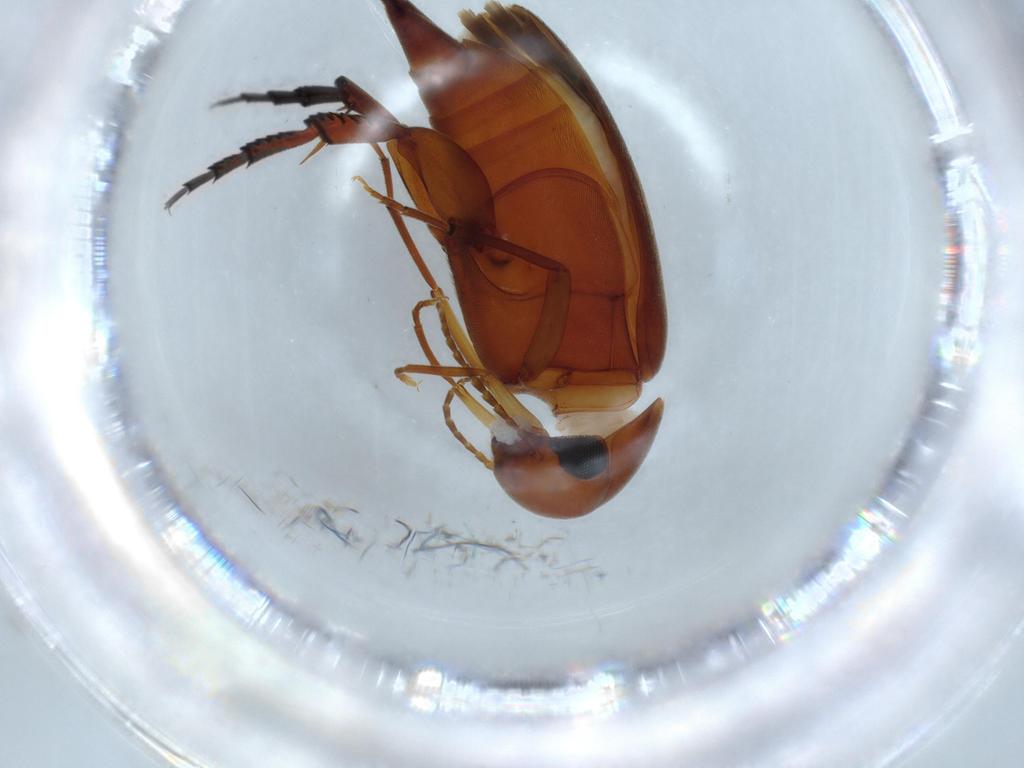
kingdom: Animalia
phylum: Arthropoda
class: Insecta
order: Coleoptera
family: Mordellidae
